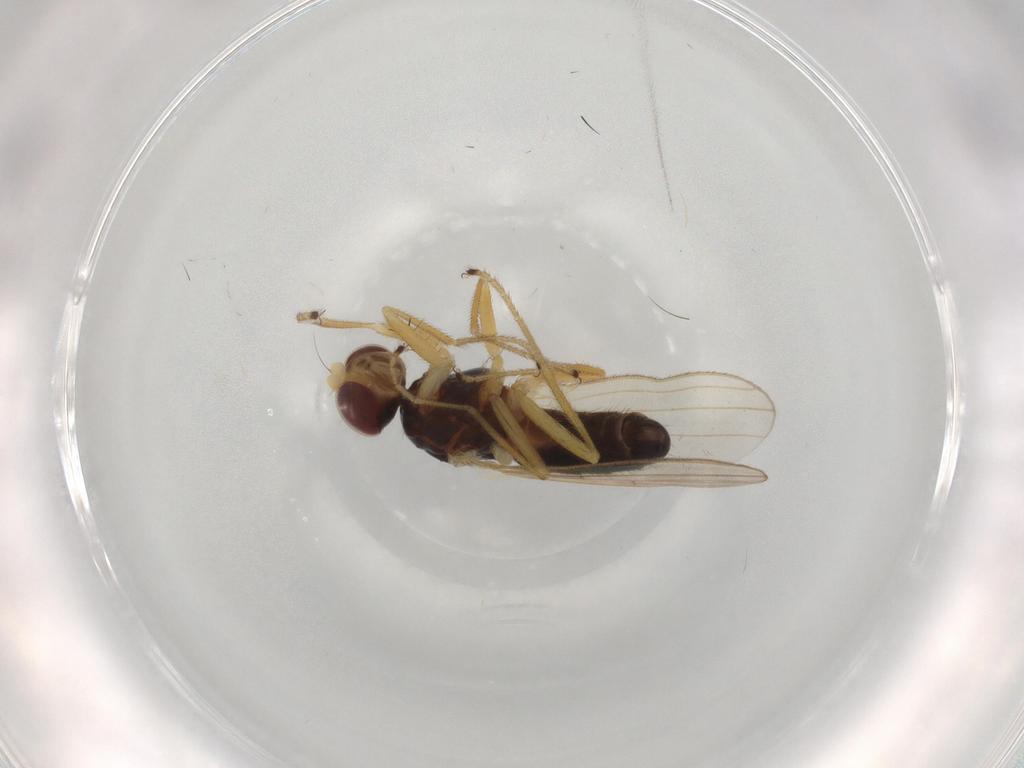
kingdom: Animalia
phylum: Arthropoda
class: Insecta
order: Diptera
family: Anthomyzidae
